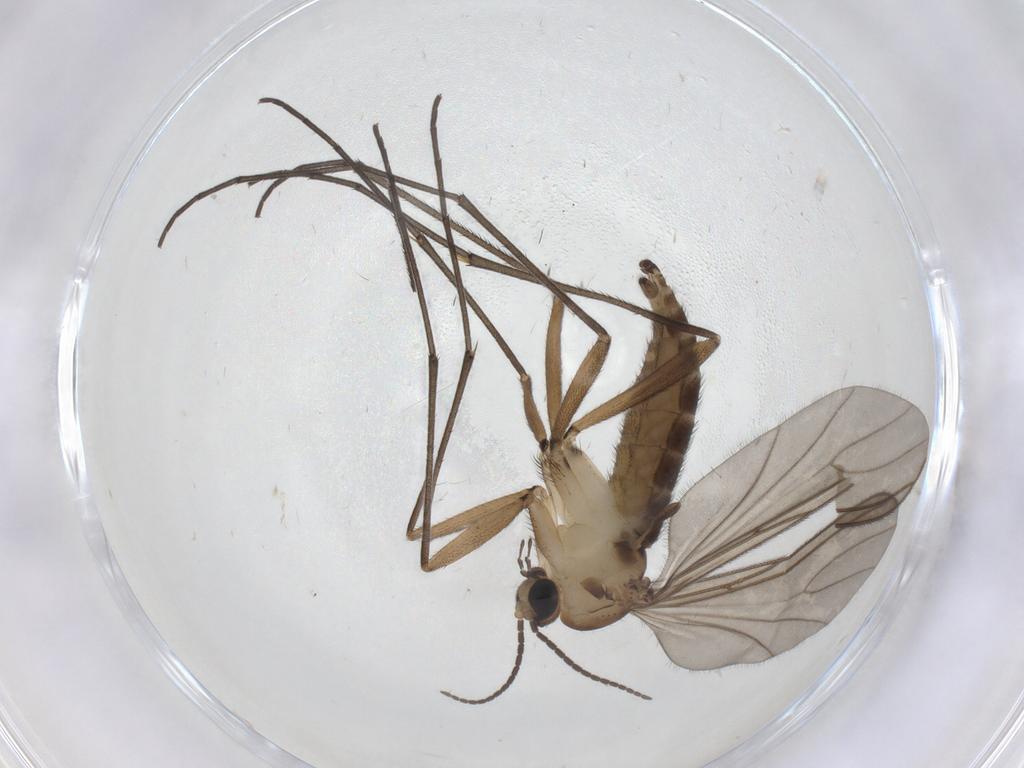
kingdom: Animalia
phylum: Arthropoda
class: Insecta
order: Diptera
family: Sciaridae
